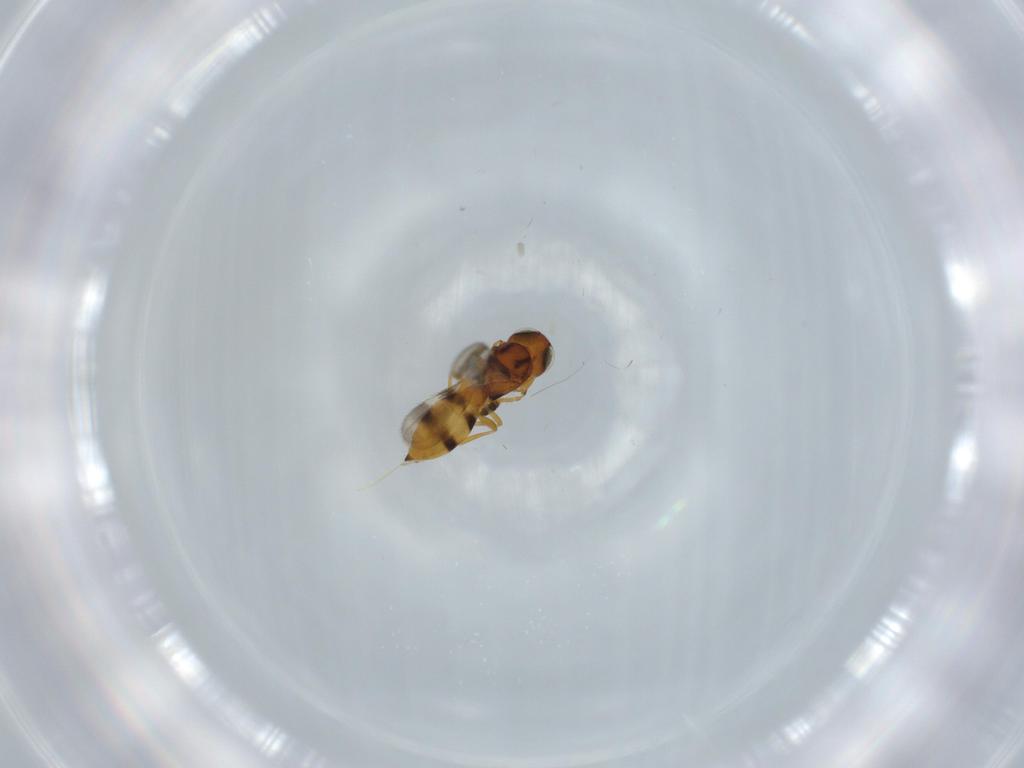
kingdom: Animalia
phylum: Arthropoda
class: Insecta
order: Hymenoptera
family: Scelionidae
